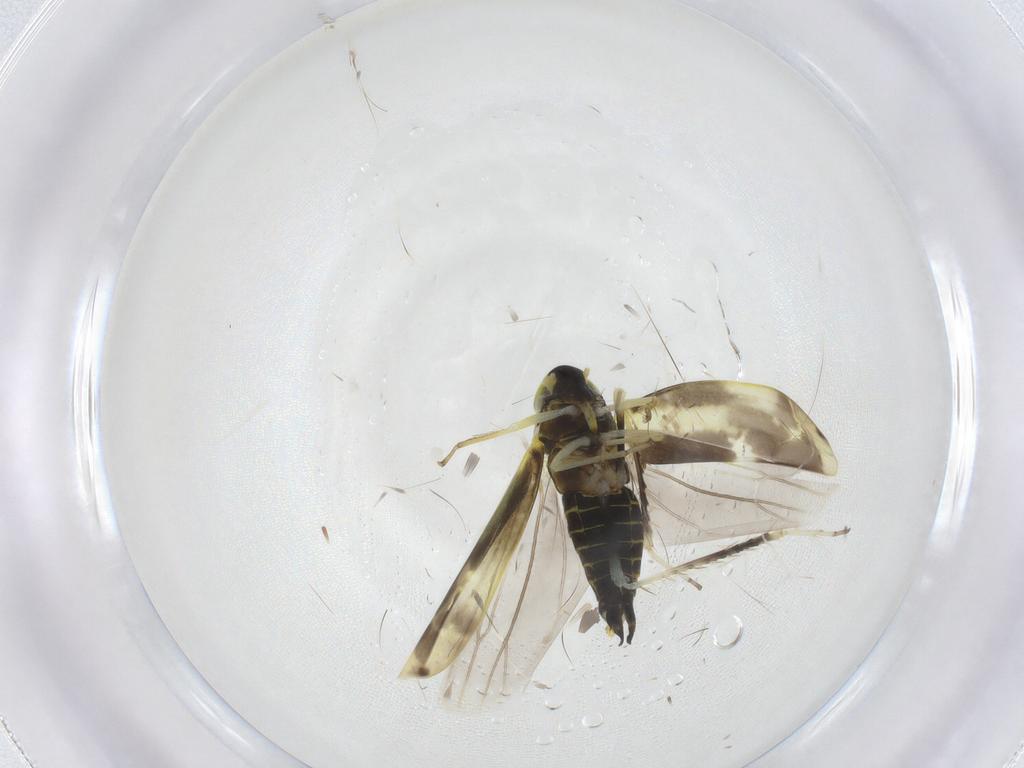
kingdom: Animalia
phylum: Arthropoda
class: Insecta
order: Hemiptera
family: Cicadellidae
